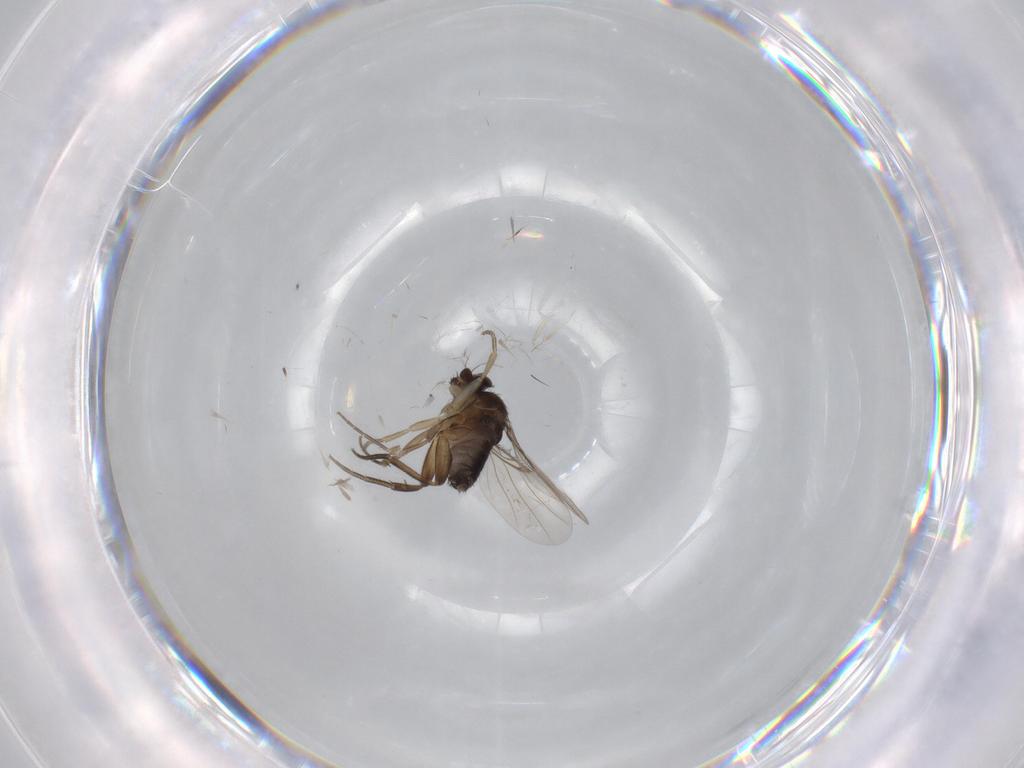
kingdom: Animalia
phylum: Arthropoda
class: Insecta
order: Diptera
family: Phoridae
